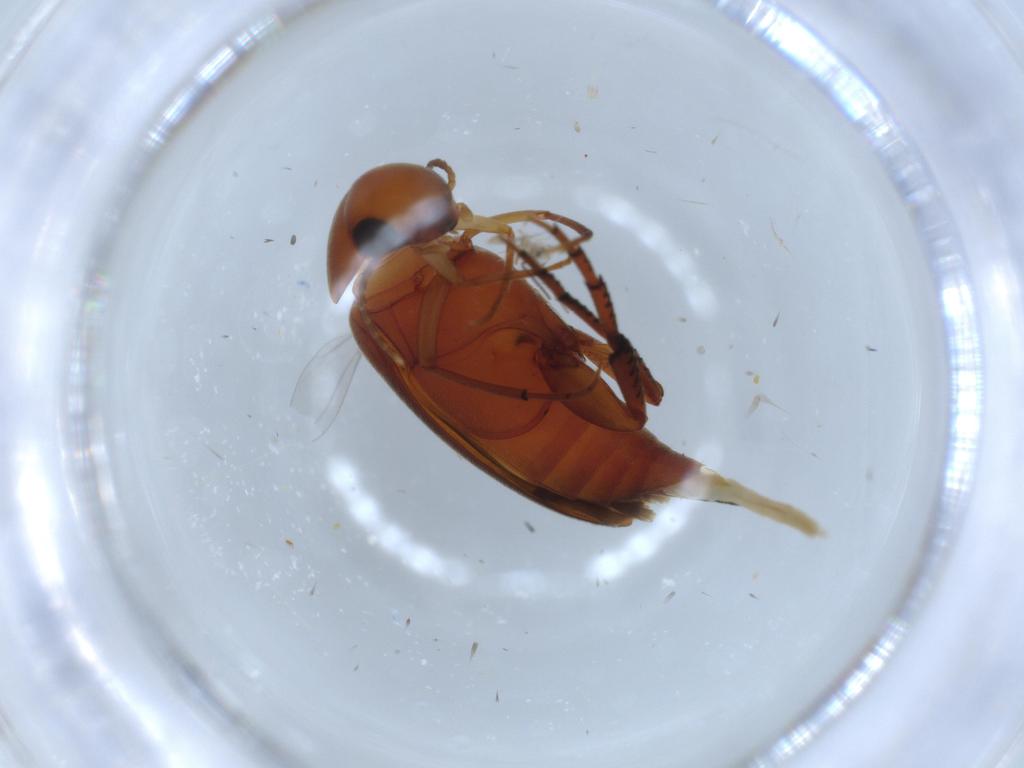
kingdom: Animalia
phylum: Arthropoda
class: Insecta
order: Coleoptera
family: Mordellidae
